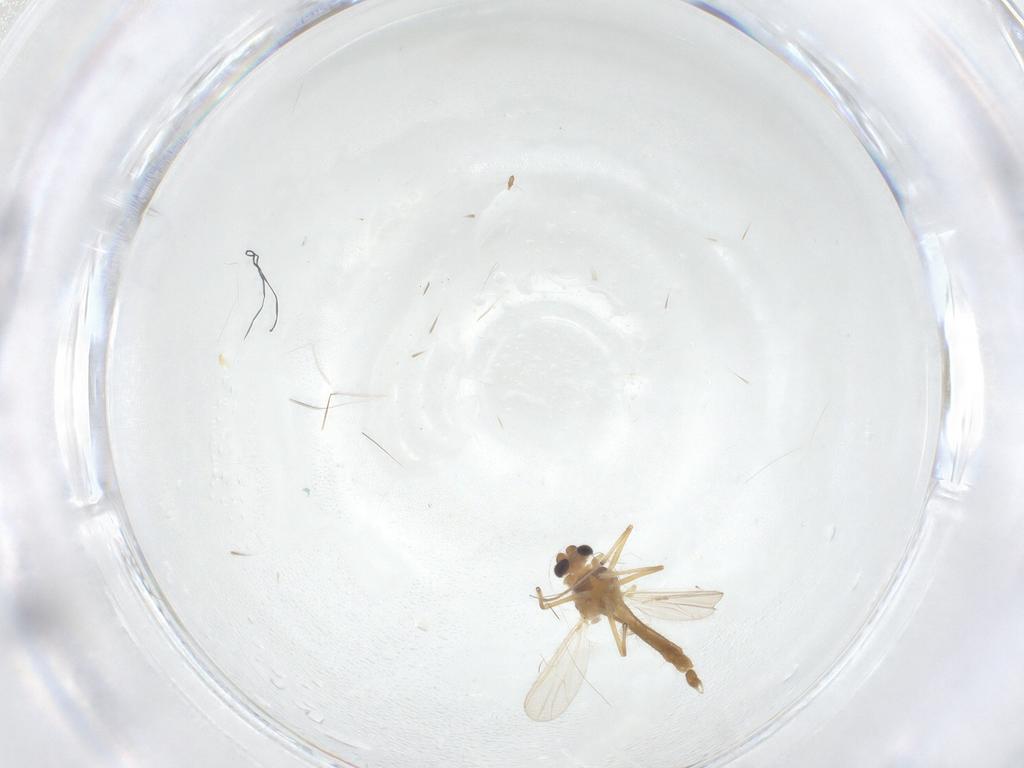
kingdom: Animalia
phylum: Arthropoda
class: Insecta
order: Diptera
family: Chironomidae
